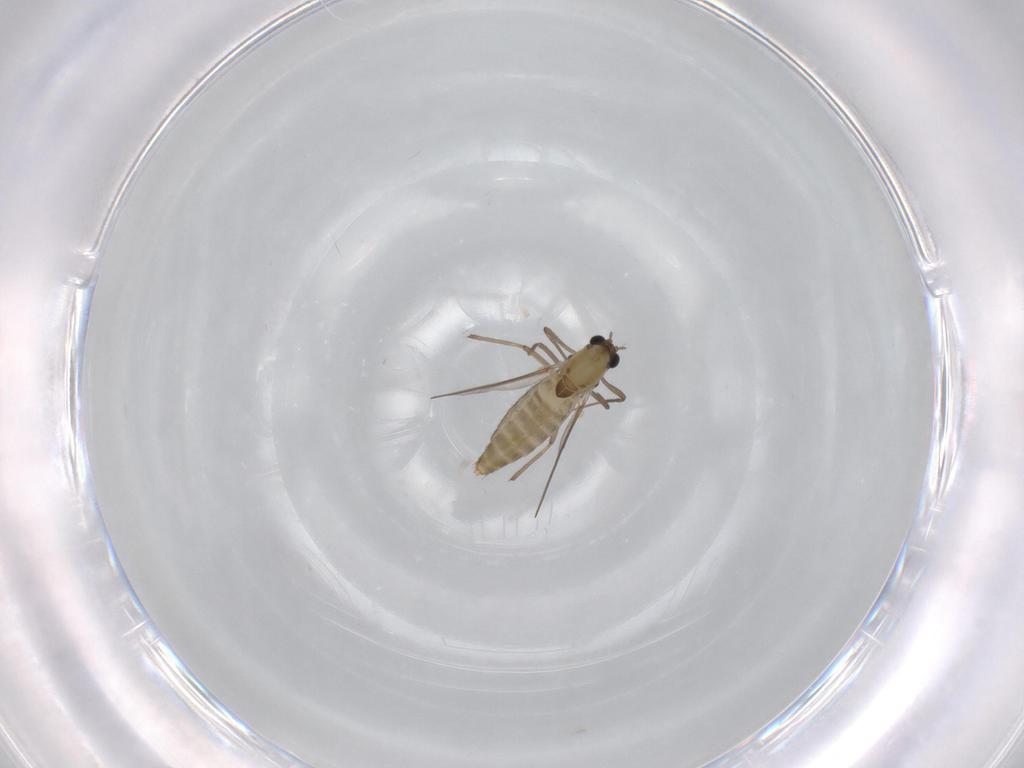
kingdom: Animalia
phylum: Arthropoda
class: Insecta
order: Diptera
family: Chironomidae
